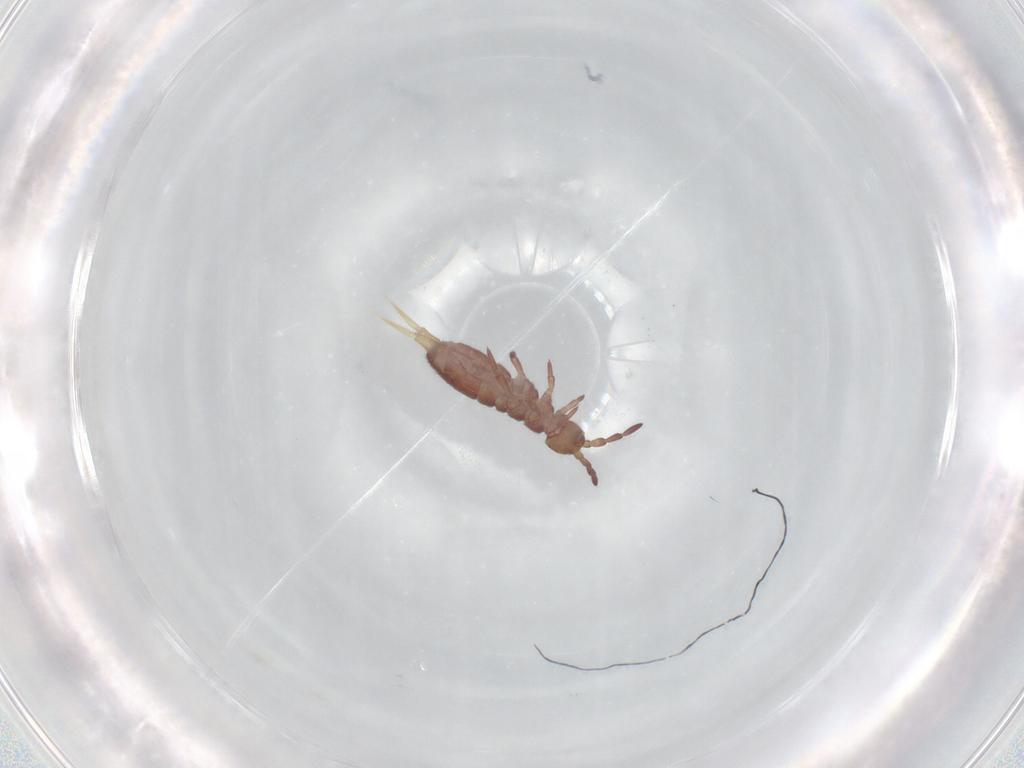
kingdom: Animalia
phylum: Arthropoda
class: Collembola
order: Entomobryomorpha
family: Isotomidae
